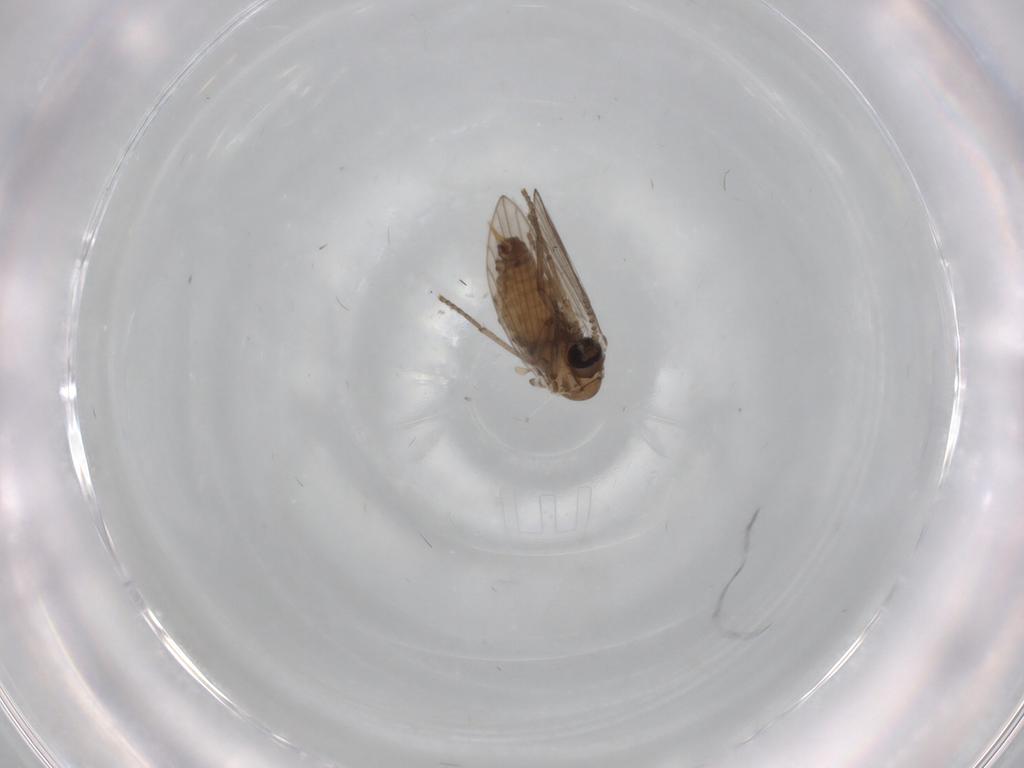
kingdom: Animalia
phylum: Arthropoda
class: Insecta
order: Diptera
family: Psychodidae
